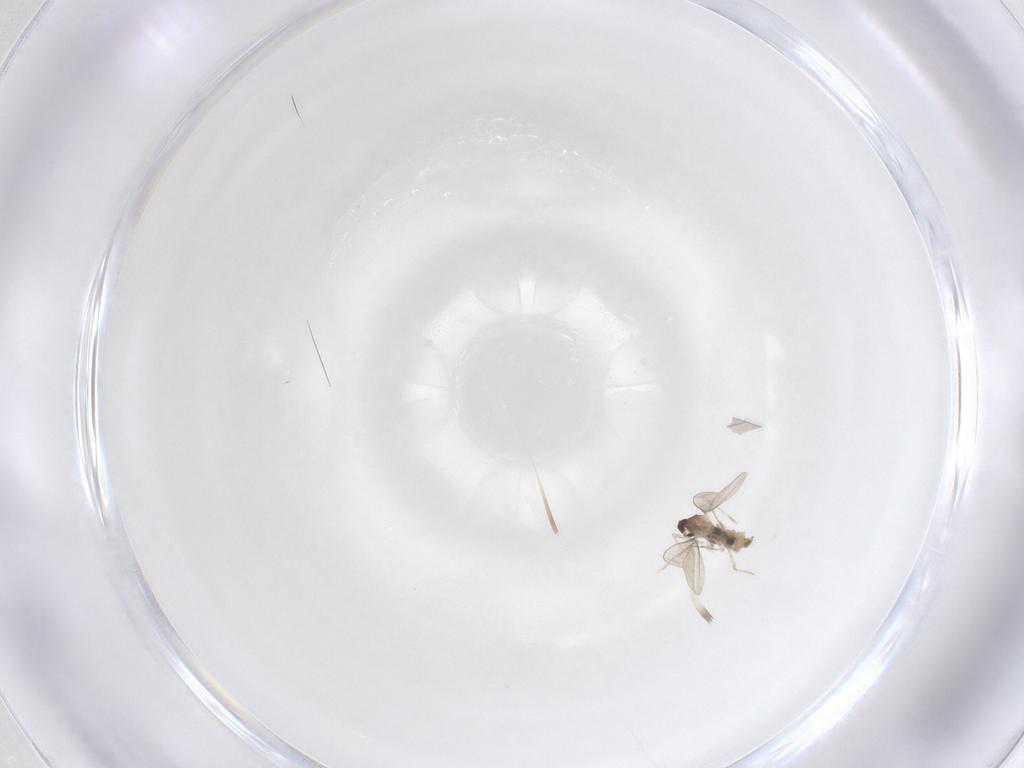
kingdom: Animalia
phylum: Arthropoda
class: Insecta
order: Diptera
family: Cecidomyiidae
